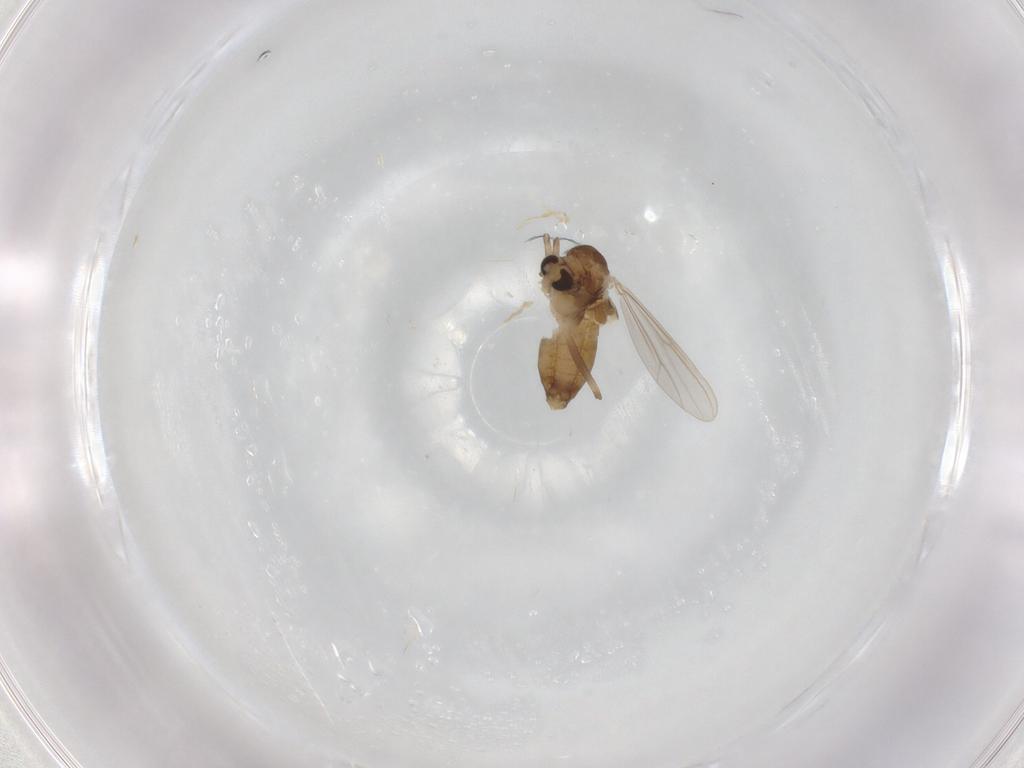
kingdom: Animalia
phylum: Arthropoda
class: Insecta
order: Diptera
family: Chironomidae
